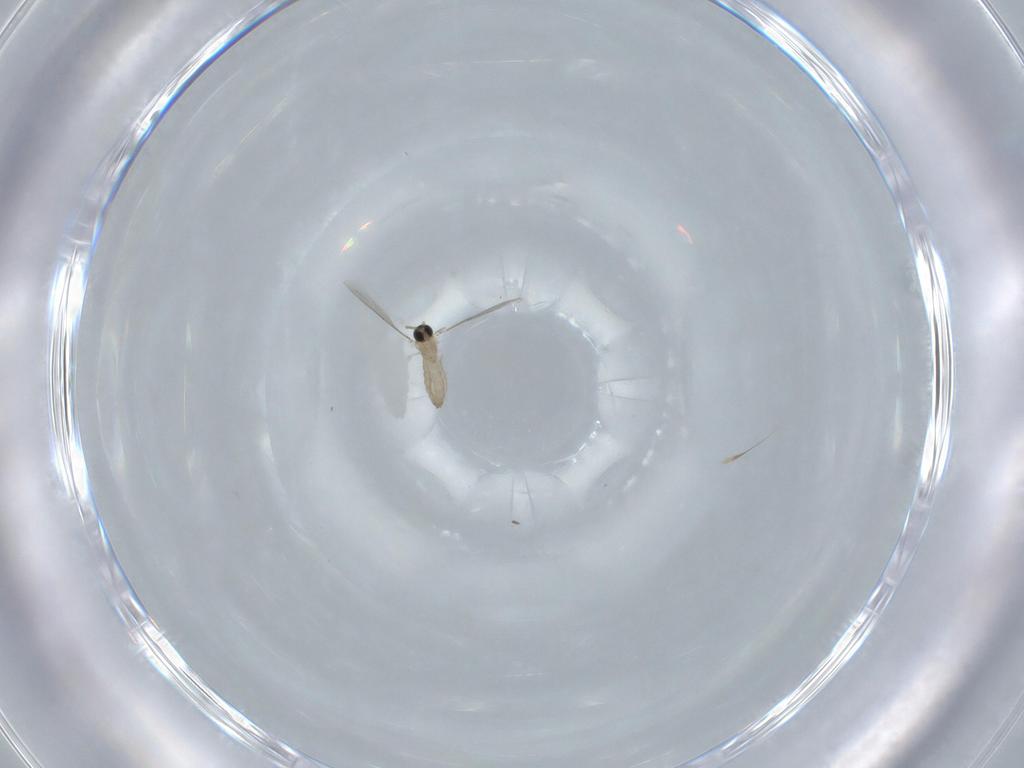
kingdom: Animalia
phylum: Arthropoda
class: Insecta
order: Diptera
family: Cecidomyiidae
